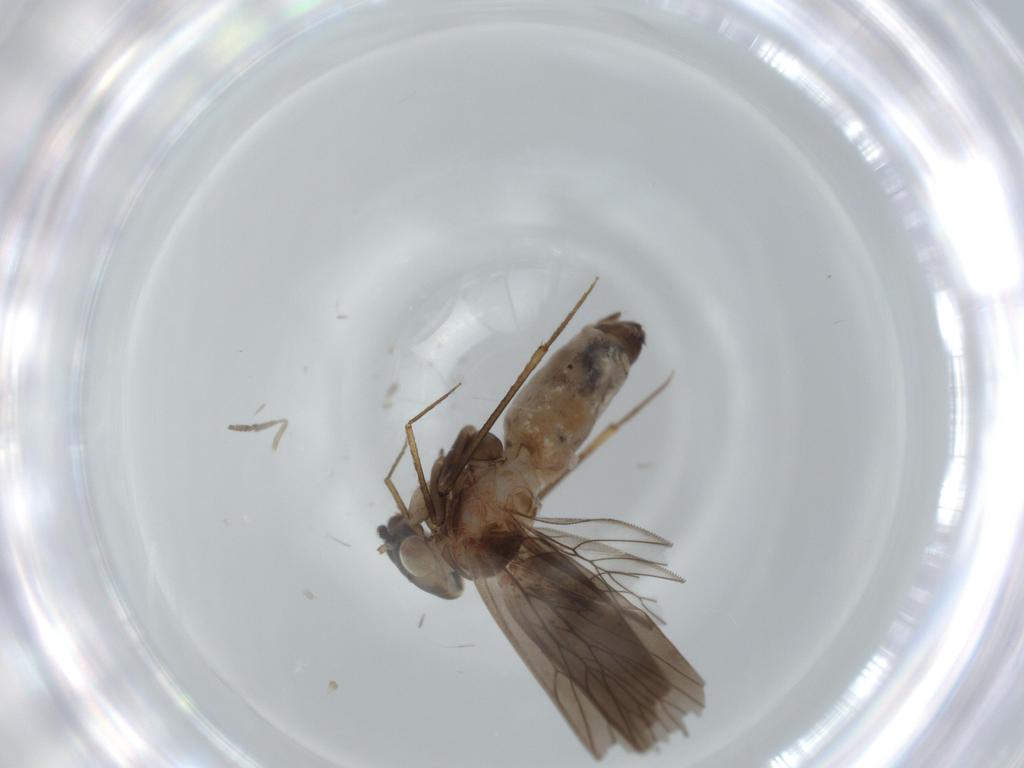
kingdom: Animalia
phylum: Arthropoda
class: Insecta
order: Psocodea
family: Lepidopsocidae
